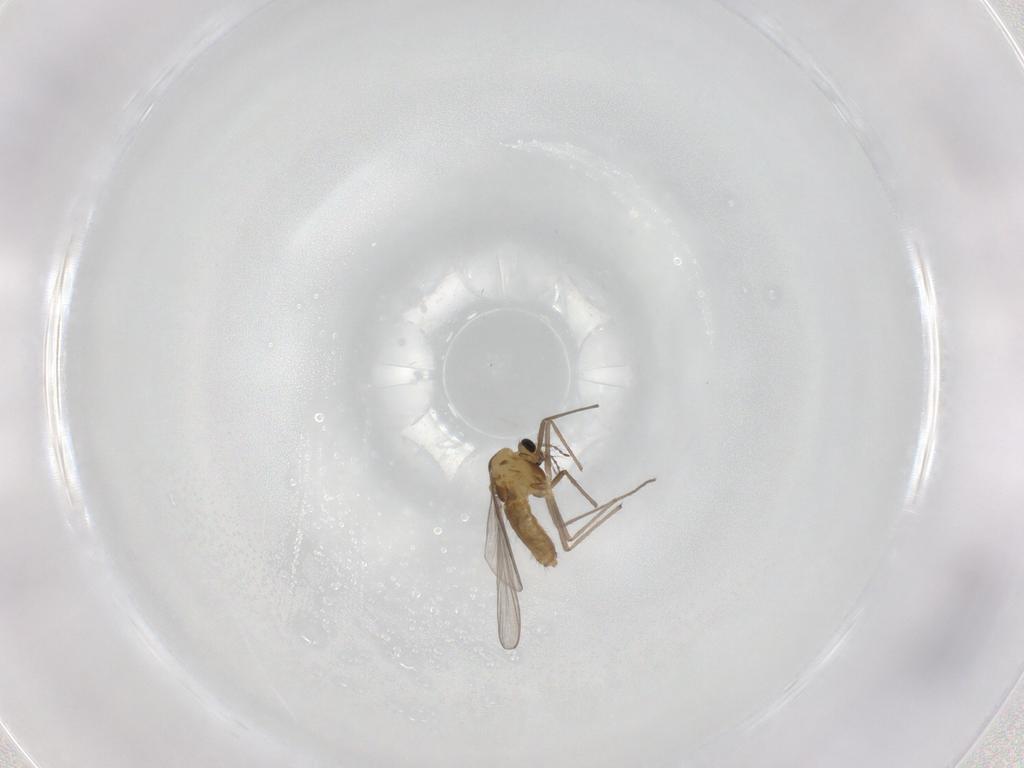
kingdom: Animalia
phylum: Arthropoda
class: Insecta
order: Diptera
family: Chironomidae
